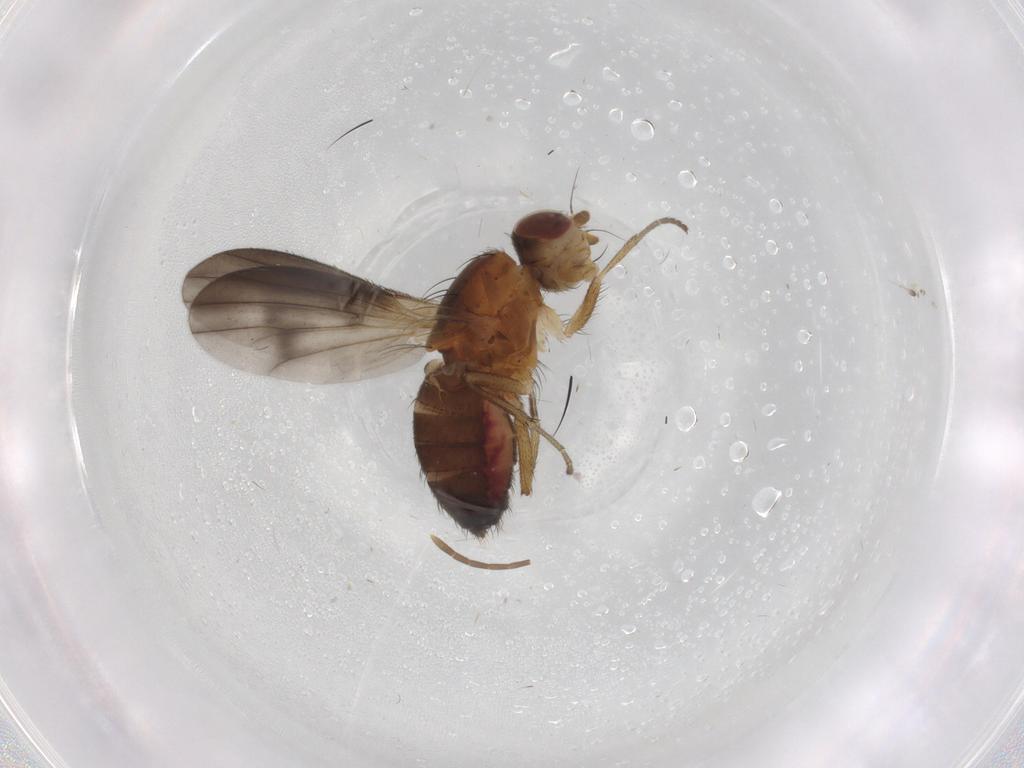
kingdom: Animalia
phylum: Arthropoda
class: Insecta
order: Diptera
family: Heleomyzidae
